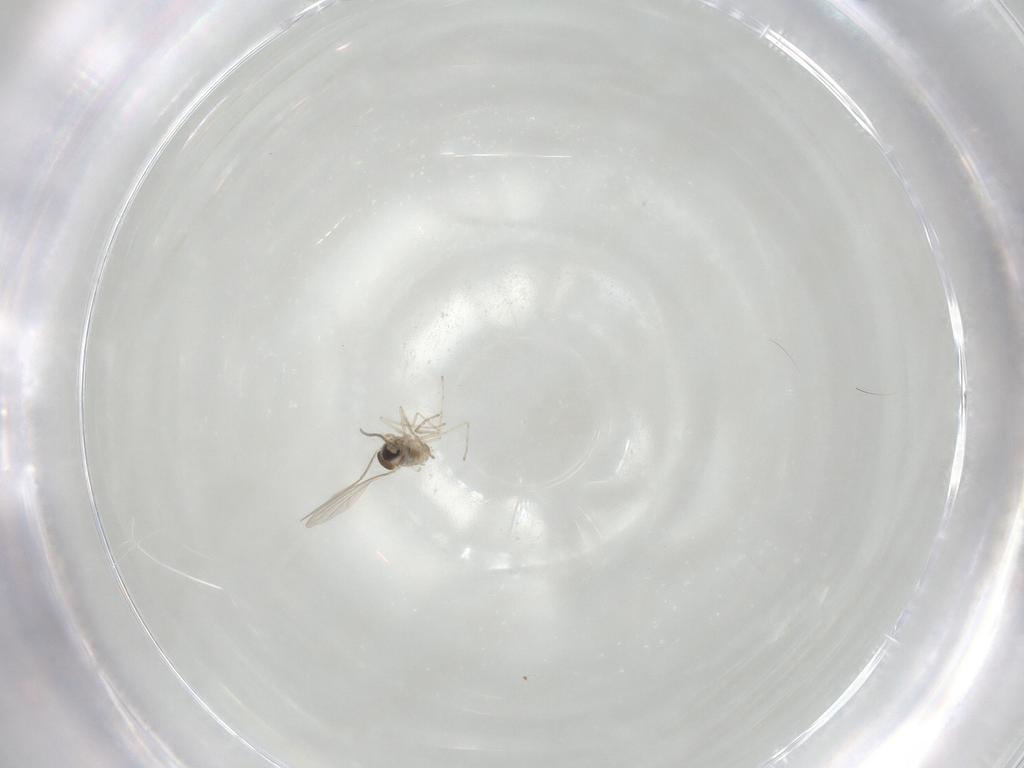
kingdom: Animalia
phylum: Arthropoda
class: Insecta
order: Diptera
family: Cecidomyiidae
